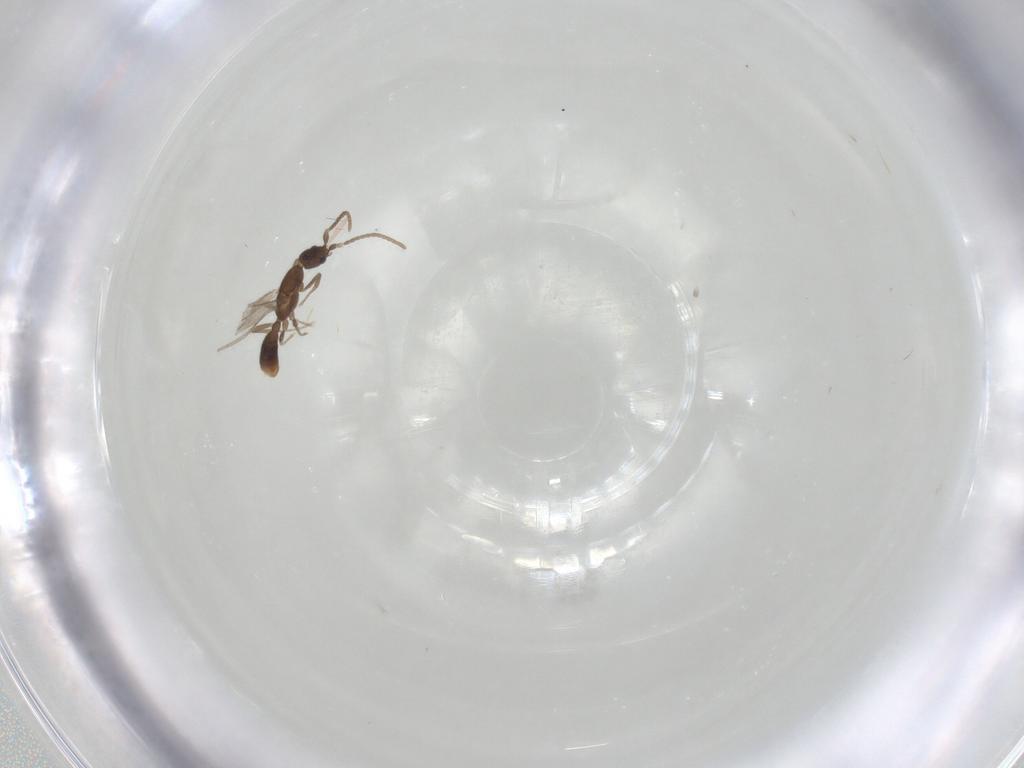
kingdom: Animalia
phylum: Arthropoda
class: Insecta
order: Hymenoptera
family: Formicidae
